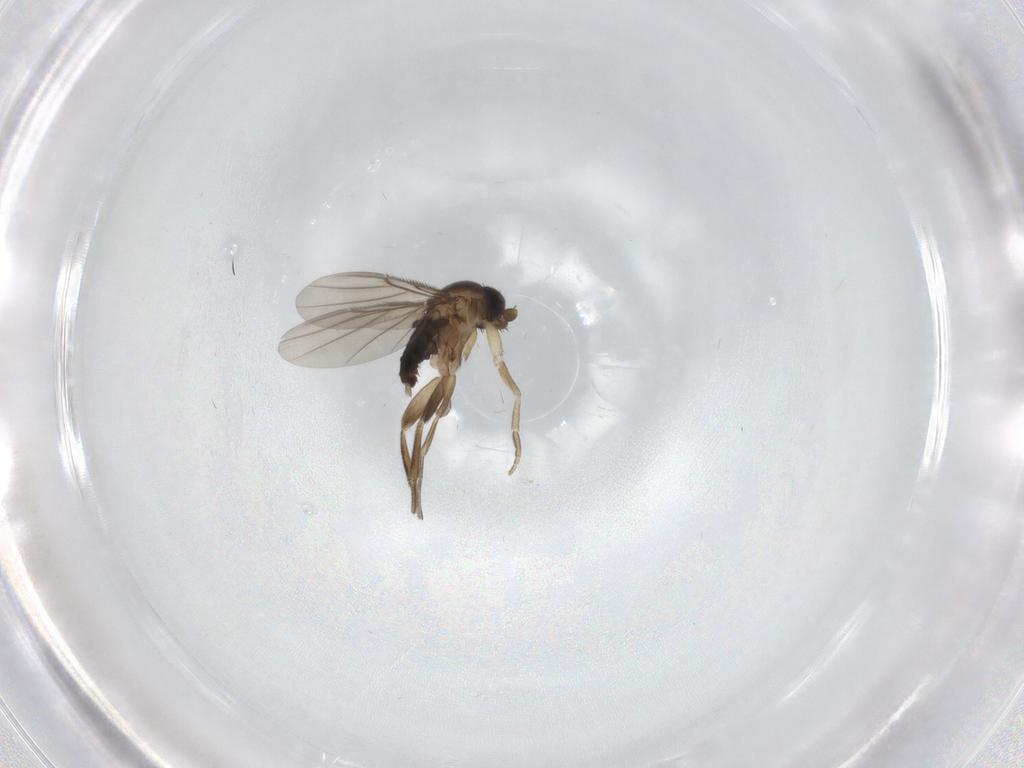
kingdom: Animalia
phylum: Arthropoda
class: Insecta
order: Diptera
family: Phoridae
